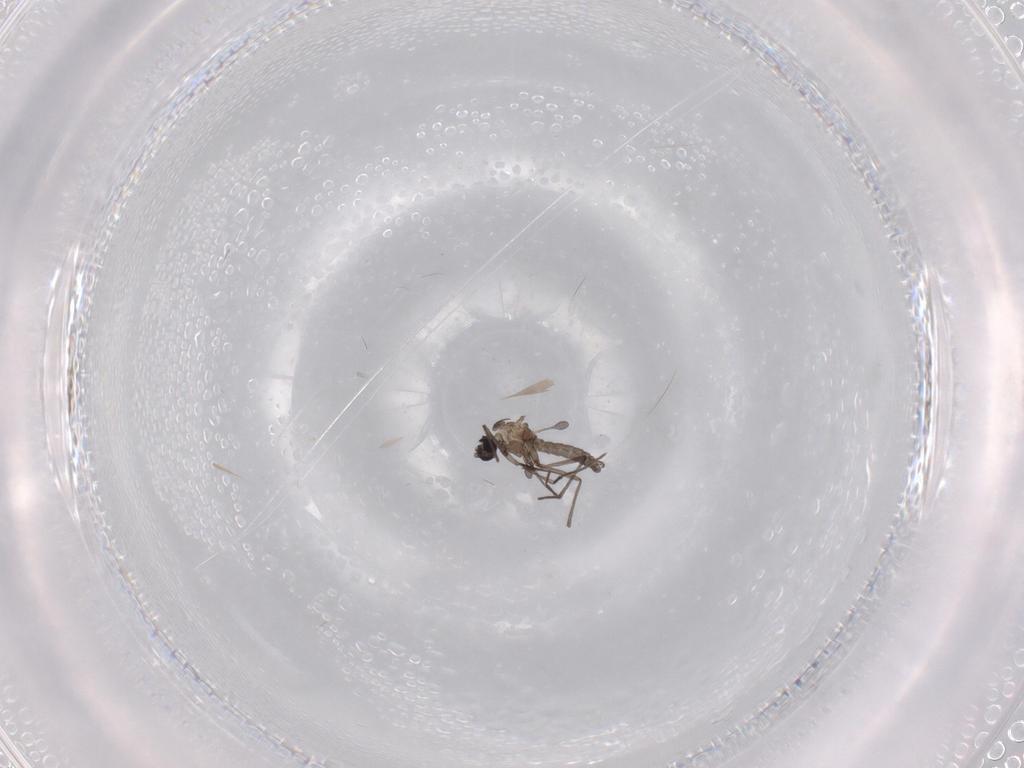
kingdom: Animalia
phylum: Arthropoda
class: Insecta
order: Diptera
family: Sciaridae
